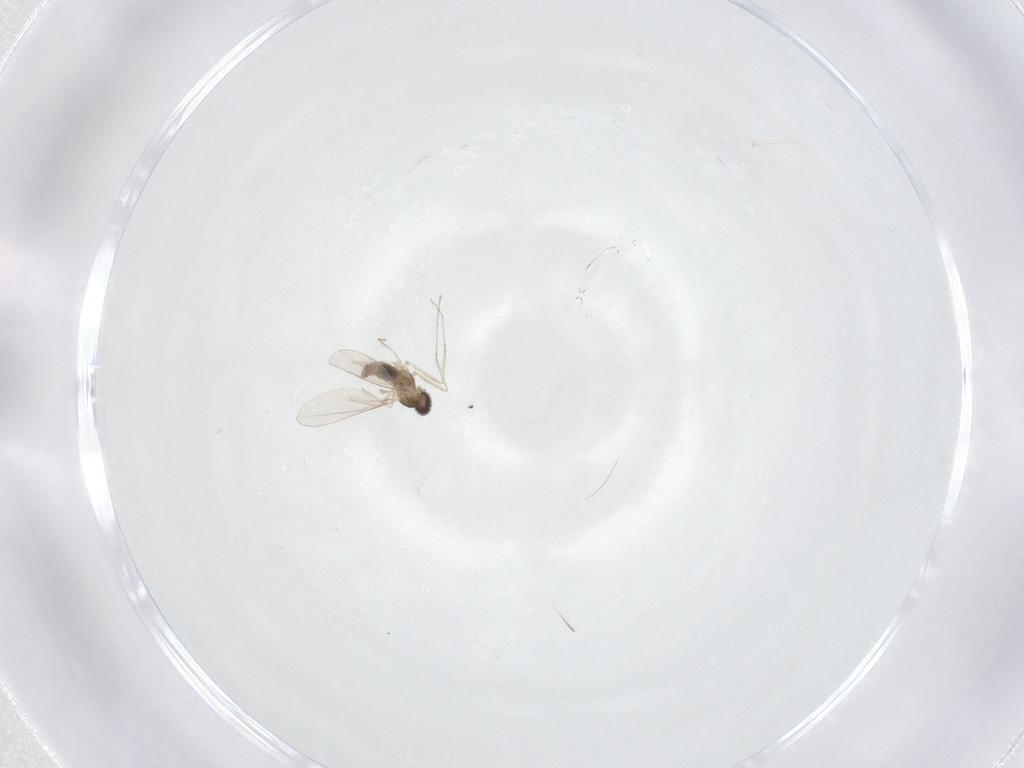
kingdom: Animalia
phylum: Arthropoda
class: Insecta
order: Diptera
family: Cecidomyiidae
